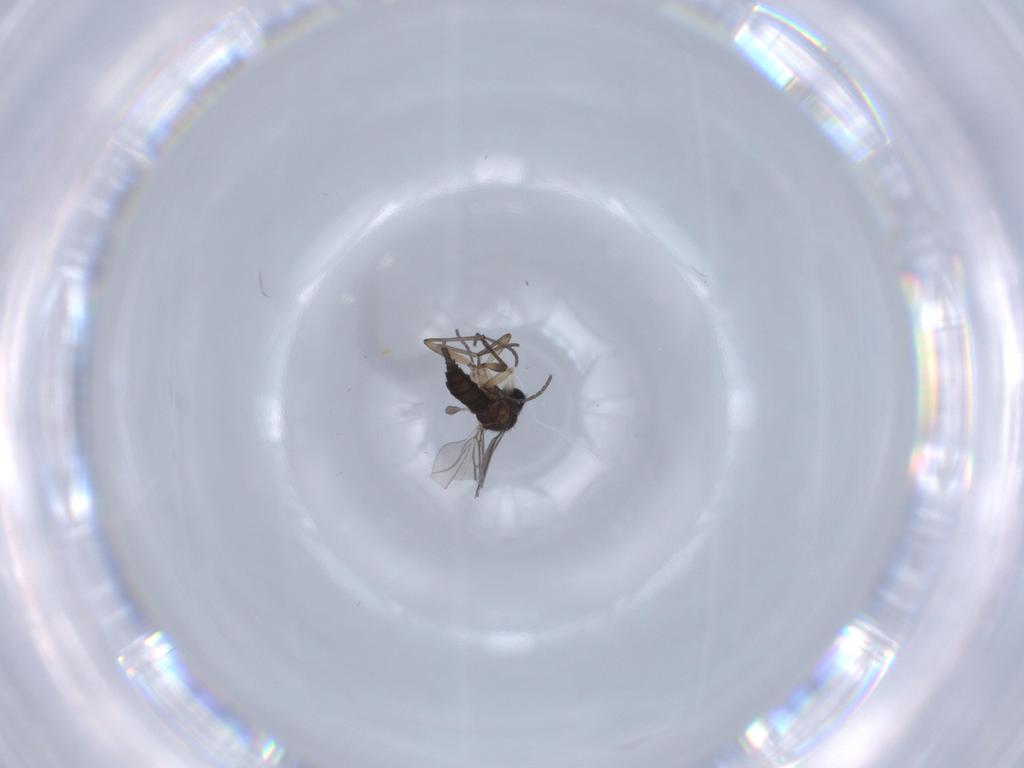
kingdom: Animalia
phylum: Arthropoda
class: Insecta
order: Diptera
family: Sciaridae
